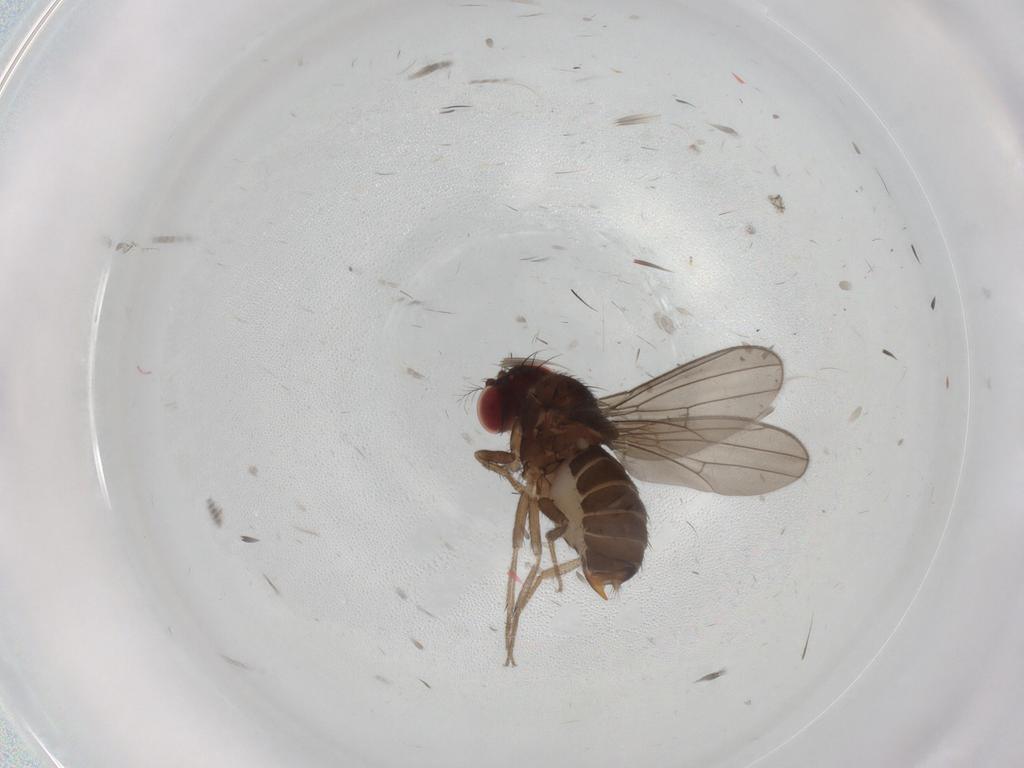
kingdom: Animalia
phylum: Arthropoda
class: Insecta
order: Diptera
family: Drosophilidae
